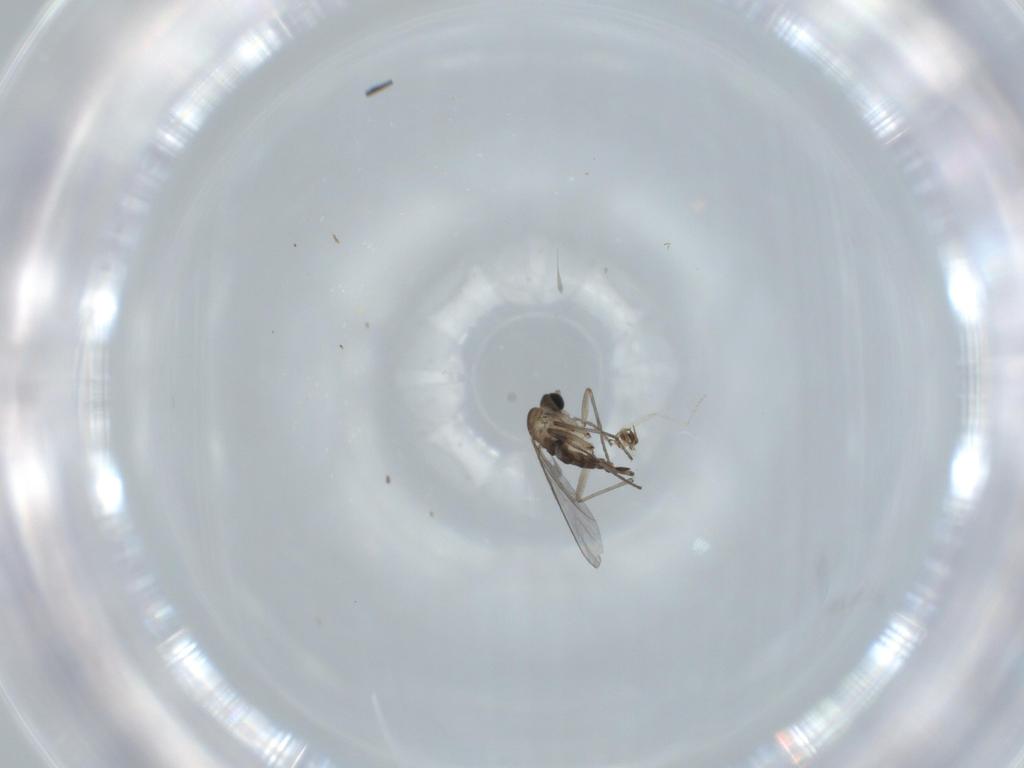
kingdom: Animalia
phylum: Arthropoda
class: Insecta
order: Diptera
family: Sciaridae
